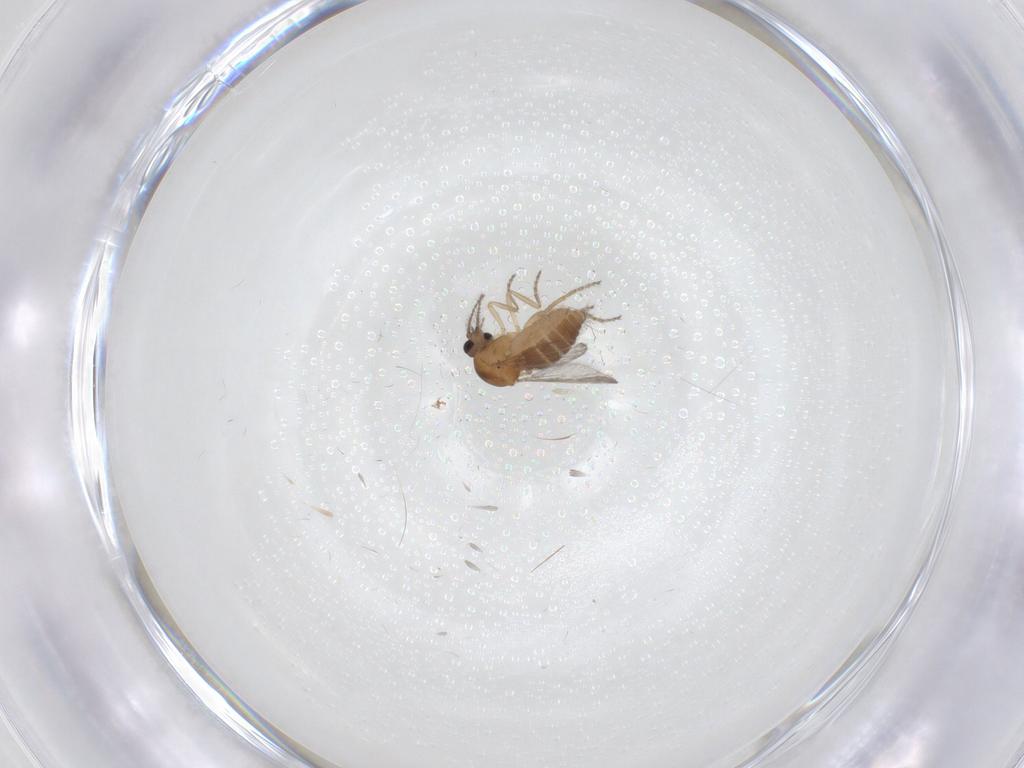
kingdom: Animalia
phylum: Arthropoda
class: Insecta
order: Diptera
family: Ceratopogonidae
